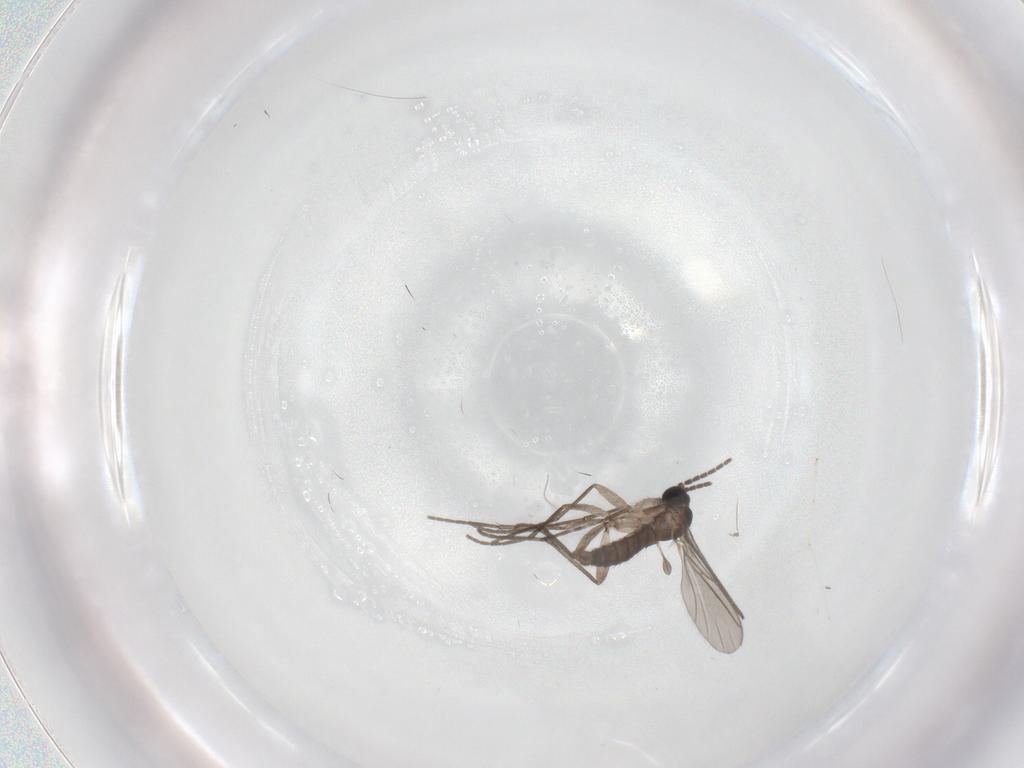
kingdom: Animalia
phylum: Arthropoda
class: Insecta
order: Diptera
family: Sciaridae
